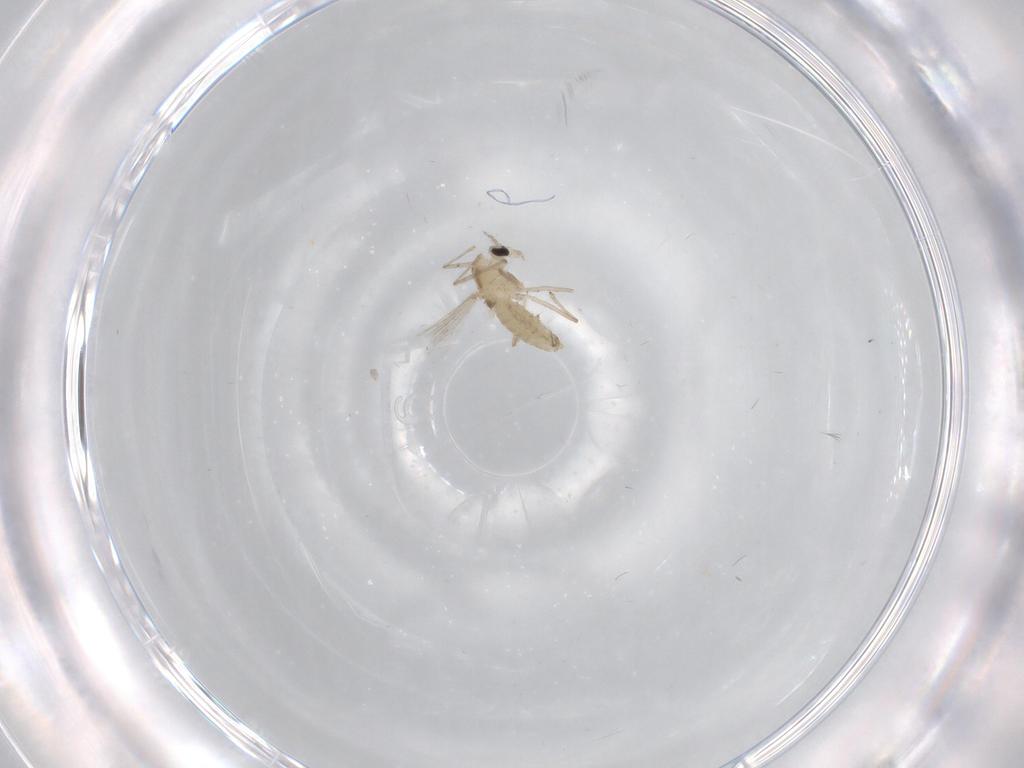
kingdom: Animalia
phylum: Arthropoda
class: Insecta
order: Diptera
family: Chironomidae
